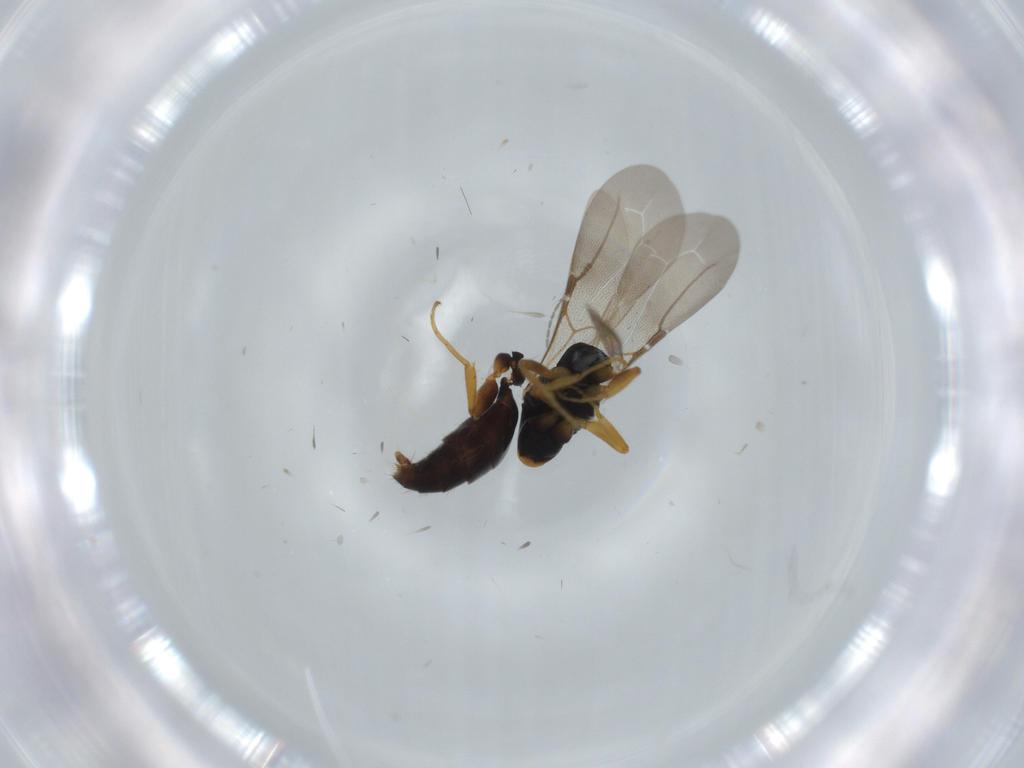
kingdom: Animalia
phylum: Arthropoda
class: Insecta
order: Hymenoptera
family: Bethylidae
